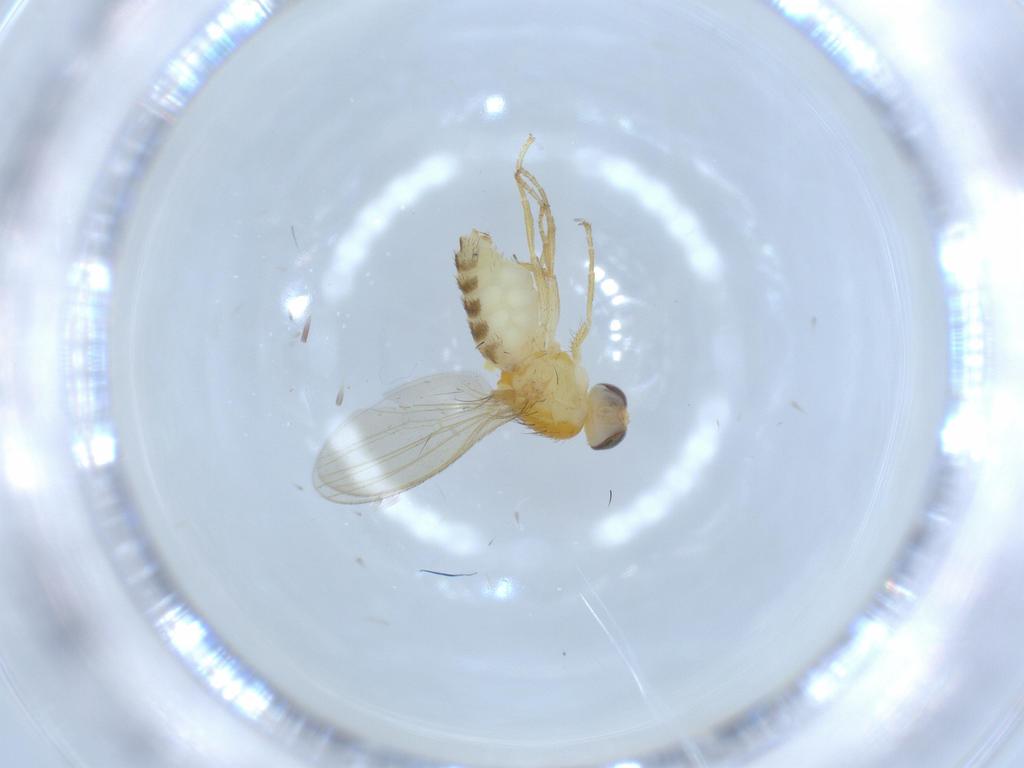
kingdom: Animalia
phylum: Arthropoda
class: Insecta
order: Diptera
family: Chyromyidae
